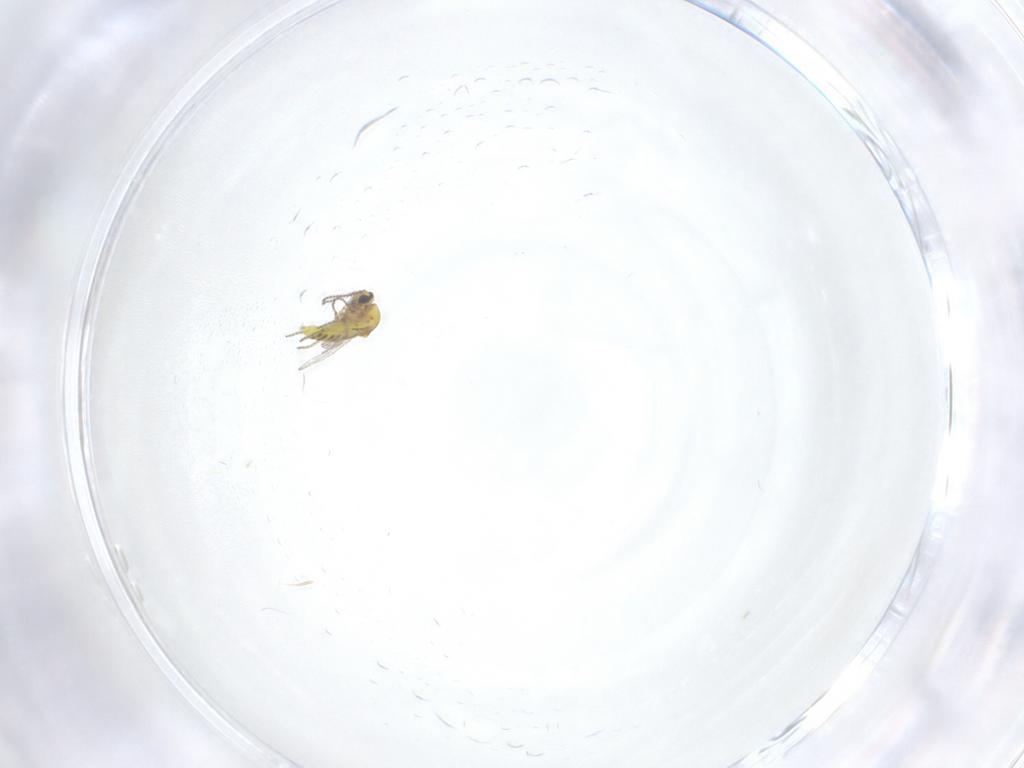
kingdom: Animalia
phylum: Arthropoda
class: Insecta
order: Diptera
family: Ceratopogonidae
